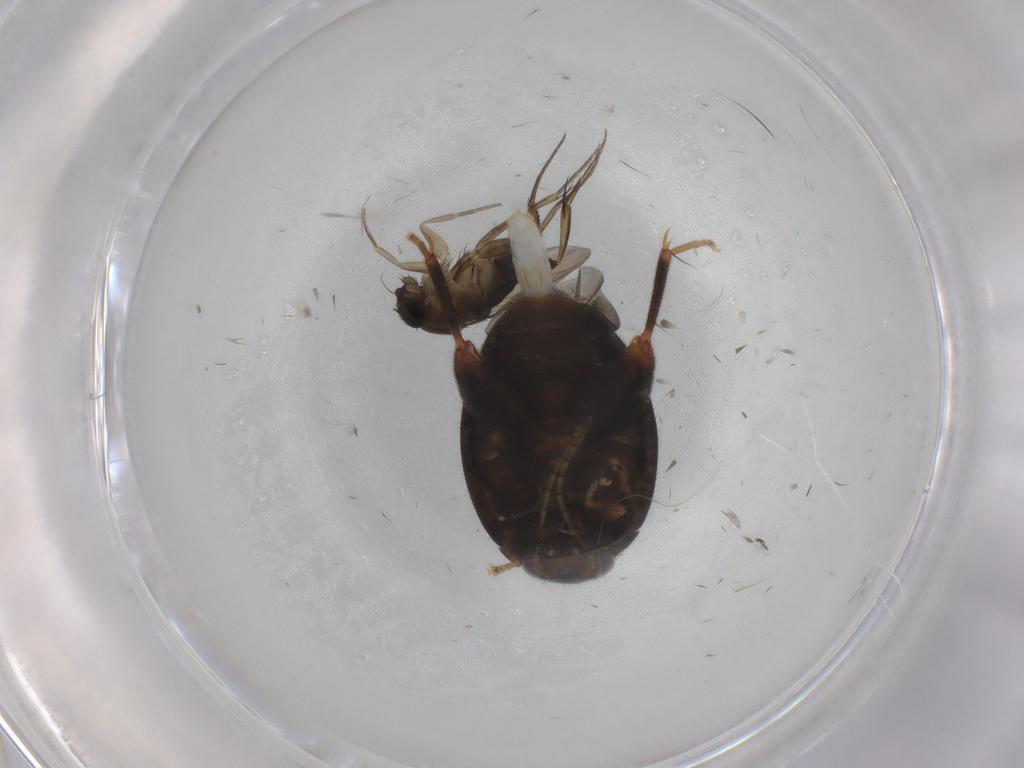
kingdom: Animalia
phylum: Arthropoda
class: Insecta
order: Coleoptera
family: Scirtidae
